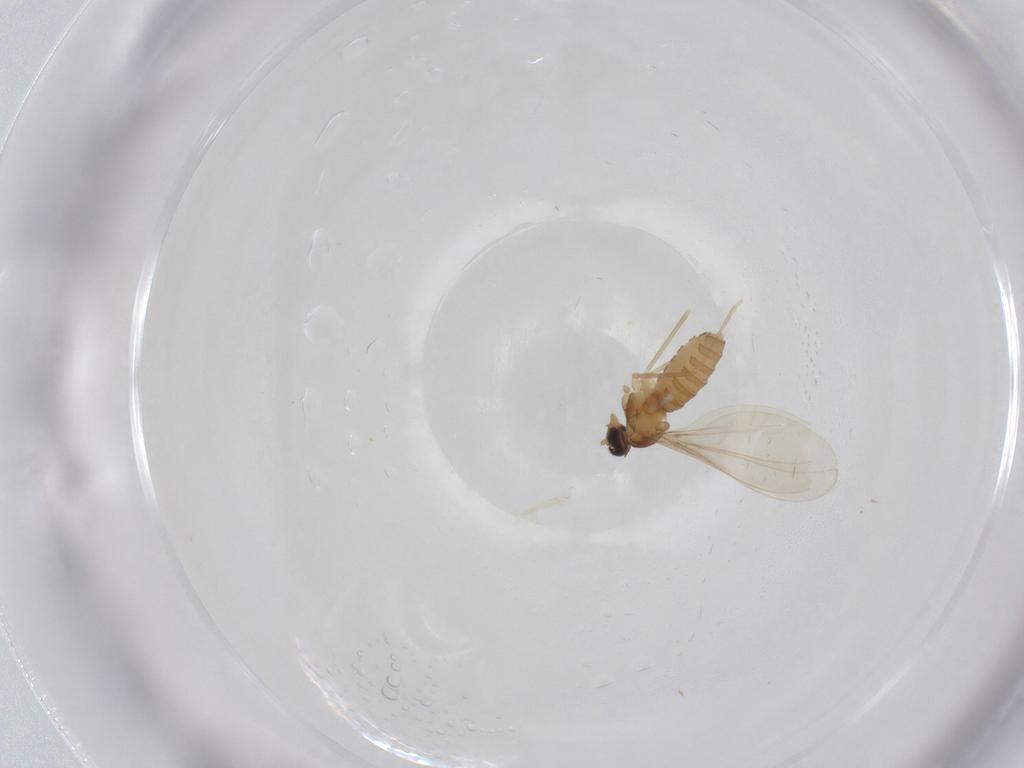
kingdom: Animalia
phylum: Arthropoda
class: Insecta
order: Diptera
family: Cecidomyiidae
